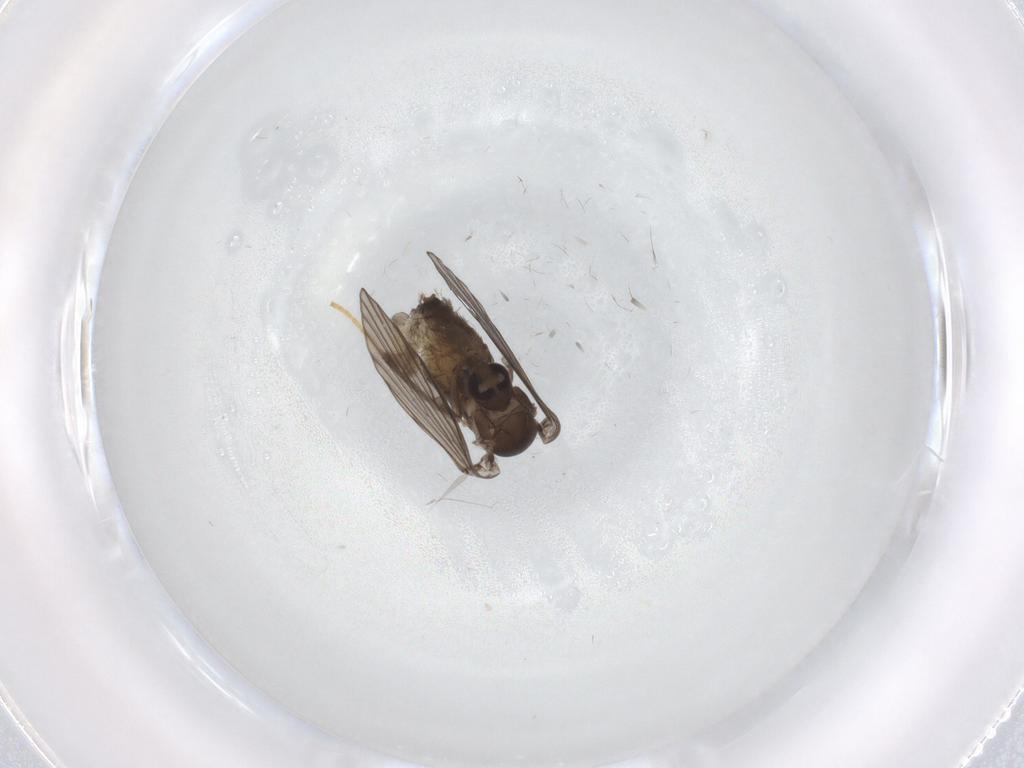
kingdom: Animalia
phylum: Arthropoda
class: Insecta
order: Diptera
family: Psychodidae
